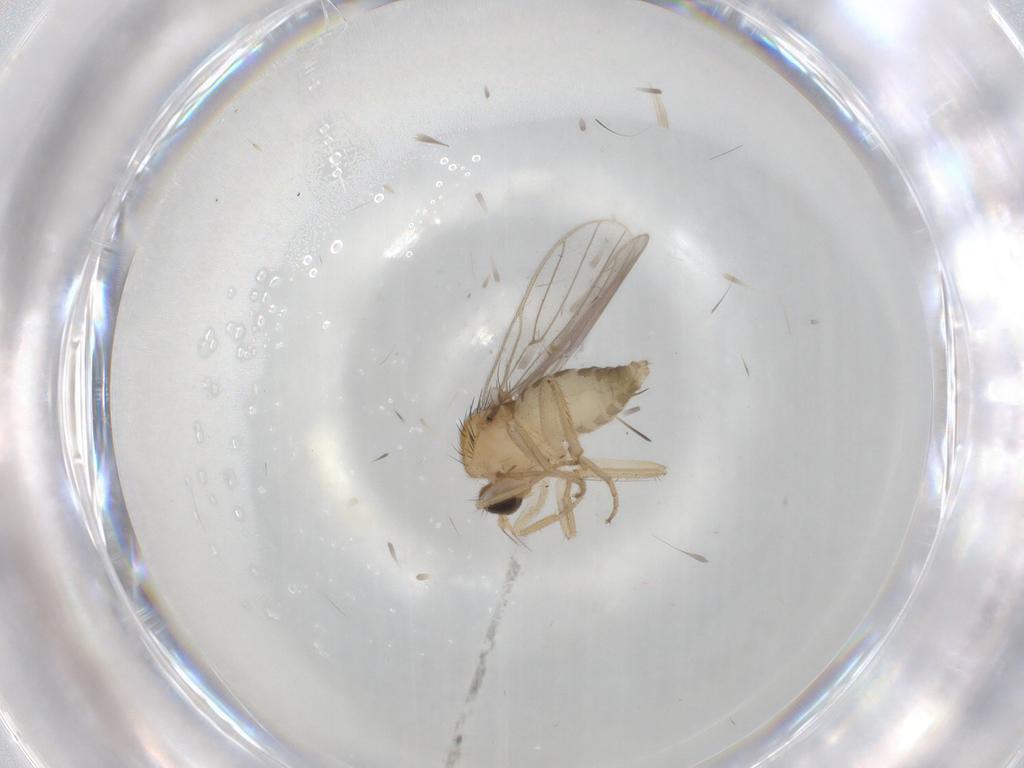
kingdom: Animalia
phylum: Arthropoda
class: Insecta
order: Diptera
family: Hybotidae
